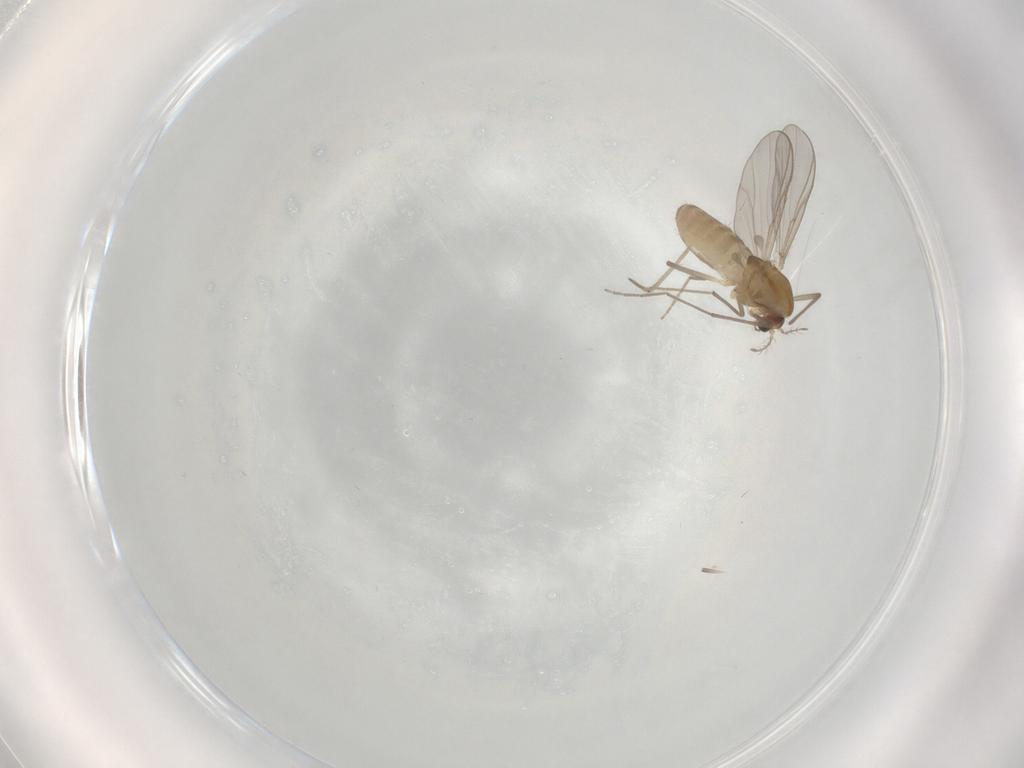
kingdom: Animalia
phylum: Arthropoda
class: Insecta
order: Diptera
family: Chironomidae
